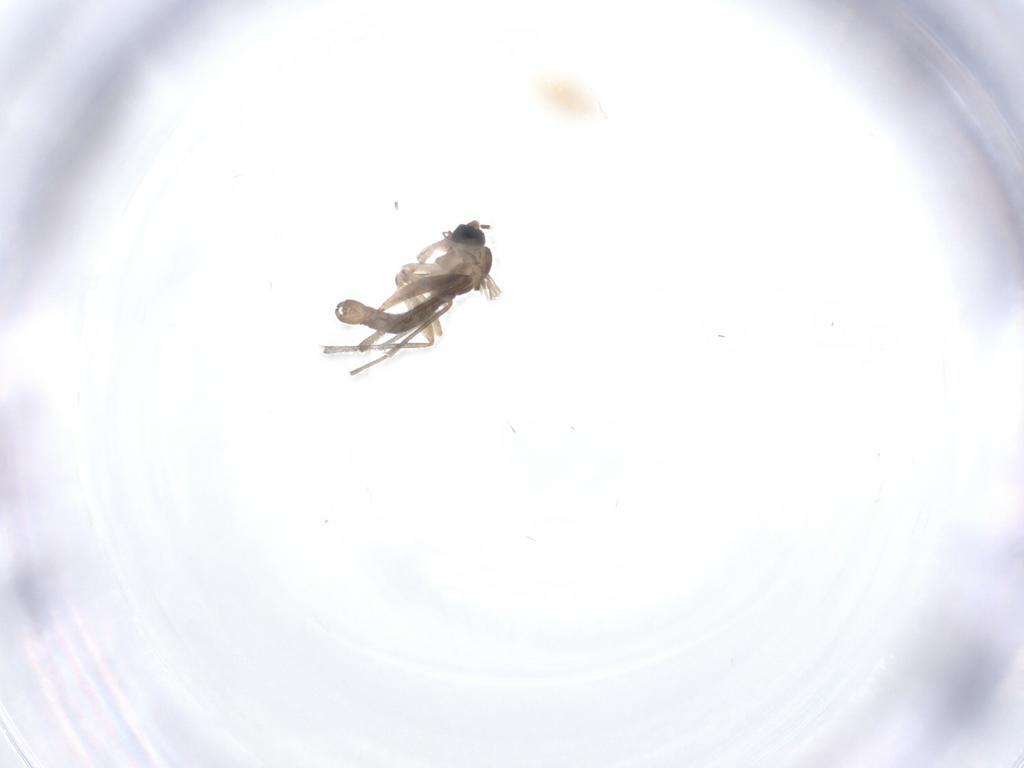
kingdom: Animalia
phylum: Arthropoda
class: Insecta
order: Diptera
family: Sciaridae
